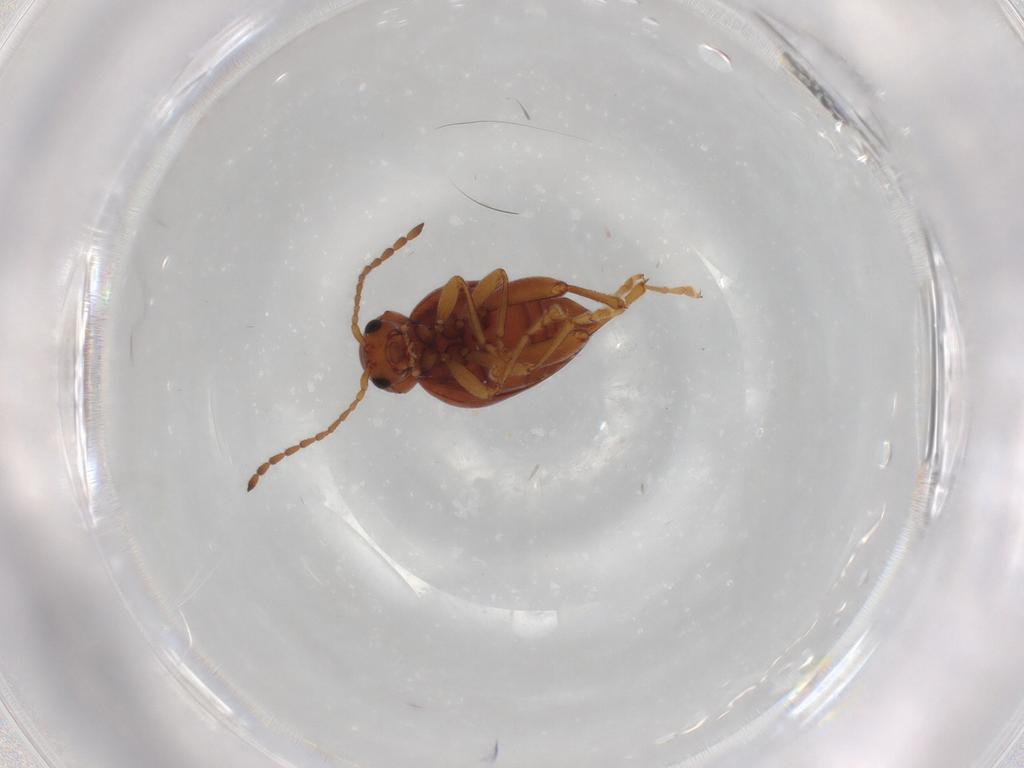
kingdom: Animalia
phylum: Arthropoda
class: Insecta
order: Coleoptera
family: Chrysomelidae
